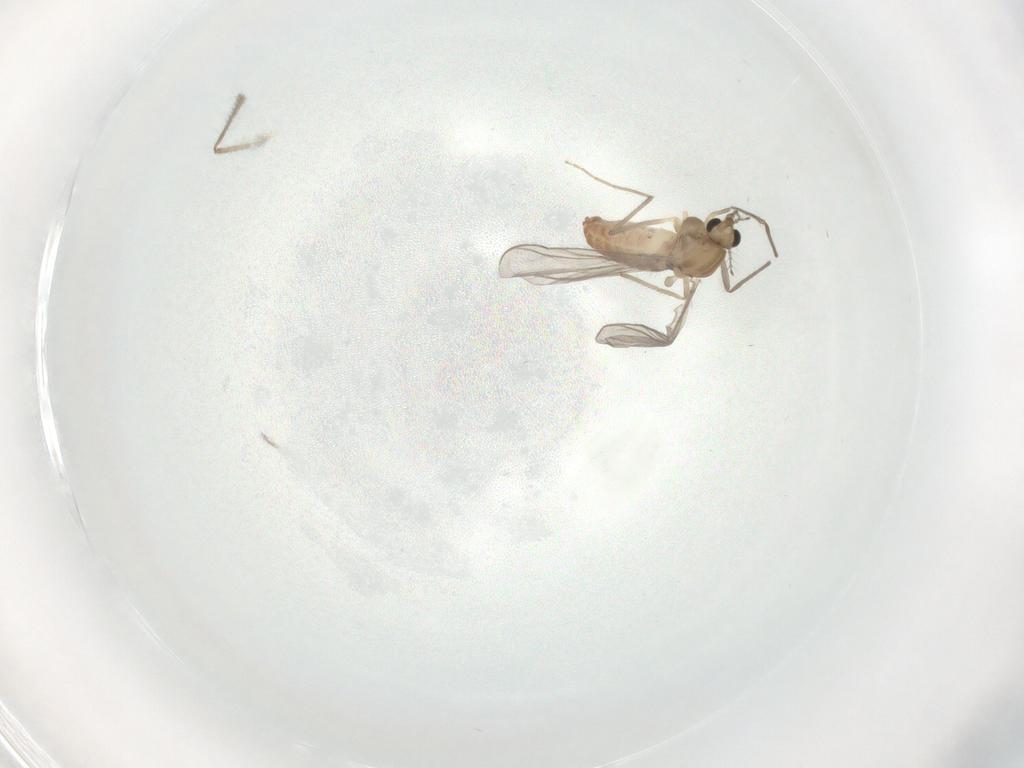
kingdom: Animalia
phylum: Arthropoda
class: Insecta
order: Diptera
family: Chironomidae
